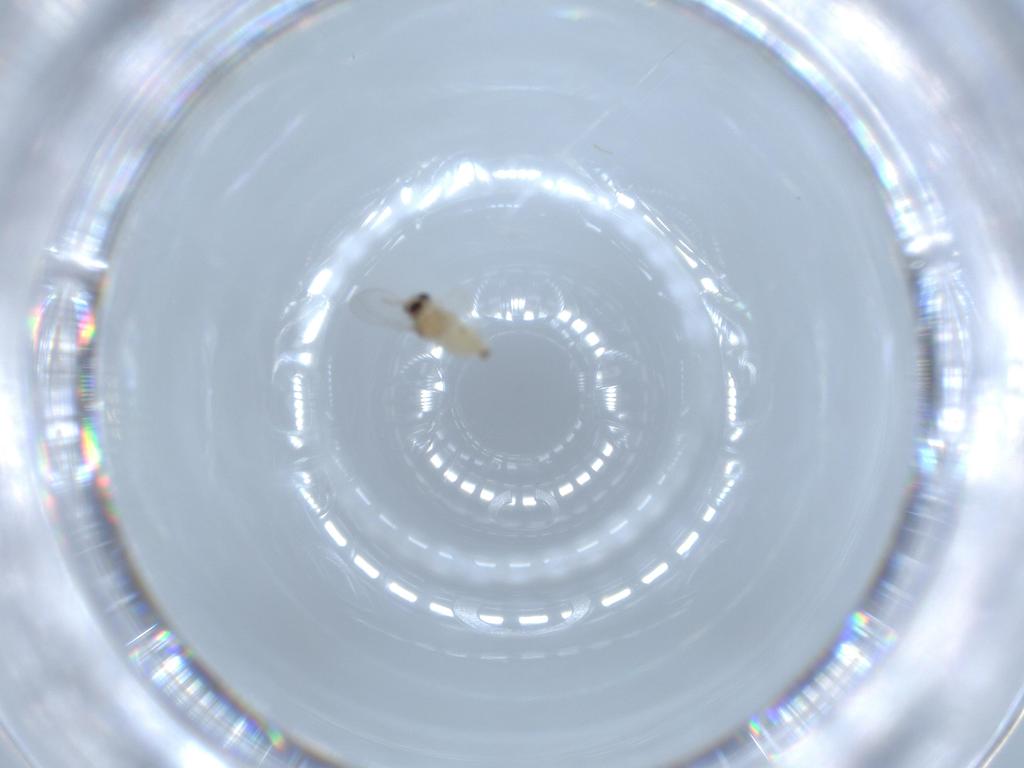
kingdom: Animalia
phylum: Arthropoda
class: Insecta
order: Diptera
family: Cecidomyiidae
